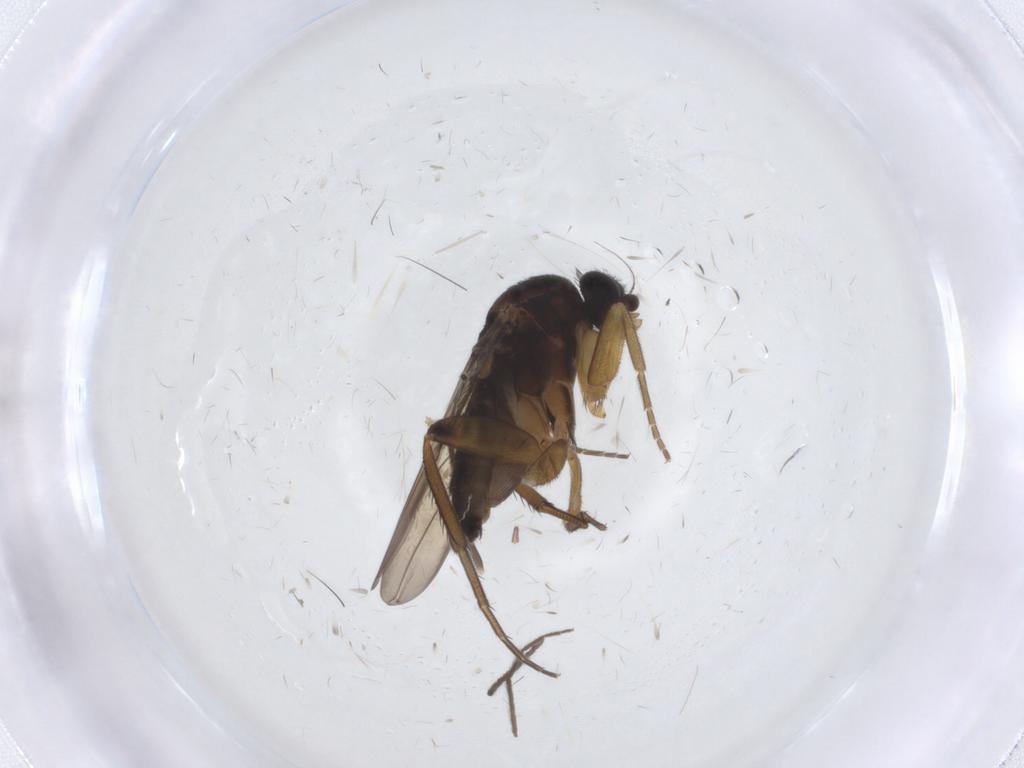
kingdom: Animalia
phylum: Arthropoda
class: Insecta
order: Diptera
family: Phoridae
